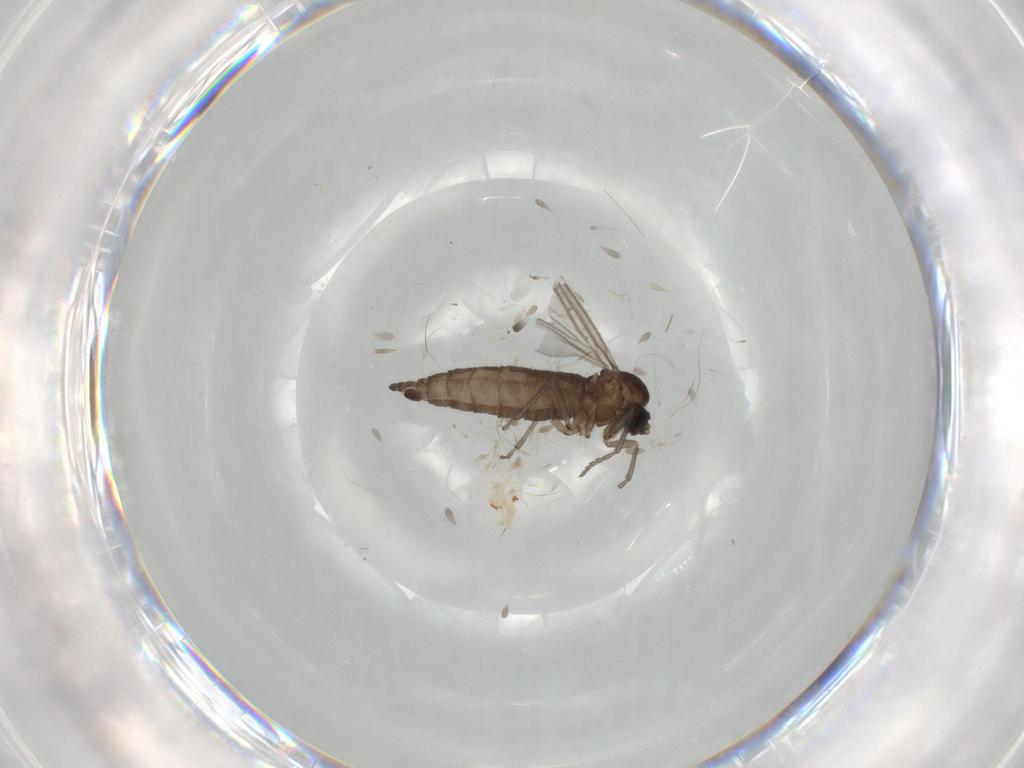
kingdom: Animalia
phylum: Arthropoda
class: Insecta
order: Diptera
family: Sciaridae
